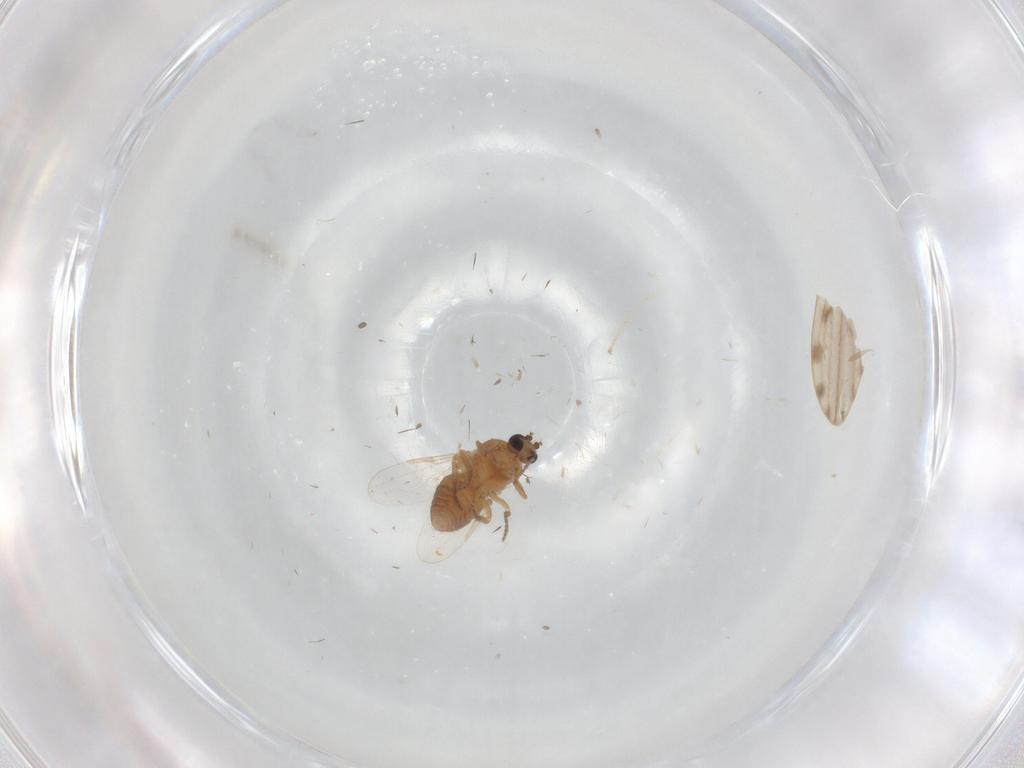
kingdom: Animalia
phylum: Arthropoda
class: Insecta
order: Diptera
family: Ceratopogonidae
